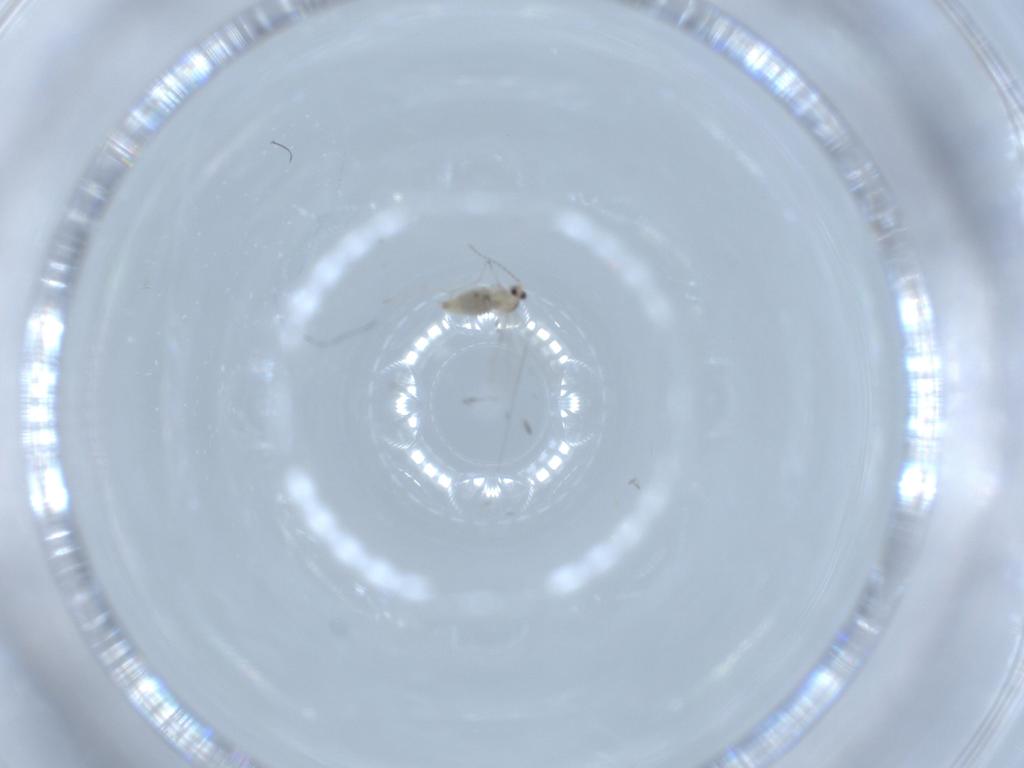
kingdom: Animalia
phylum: Arthropoda
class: Insecta
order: Diptera
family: Cecidomyiidae
